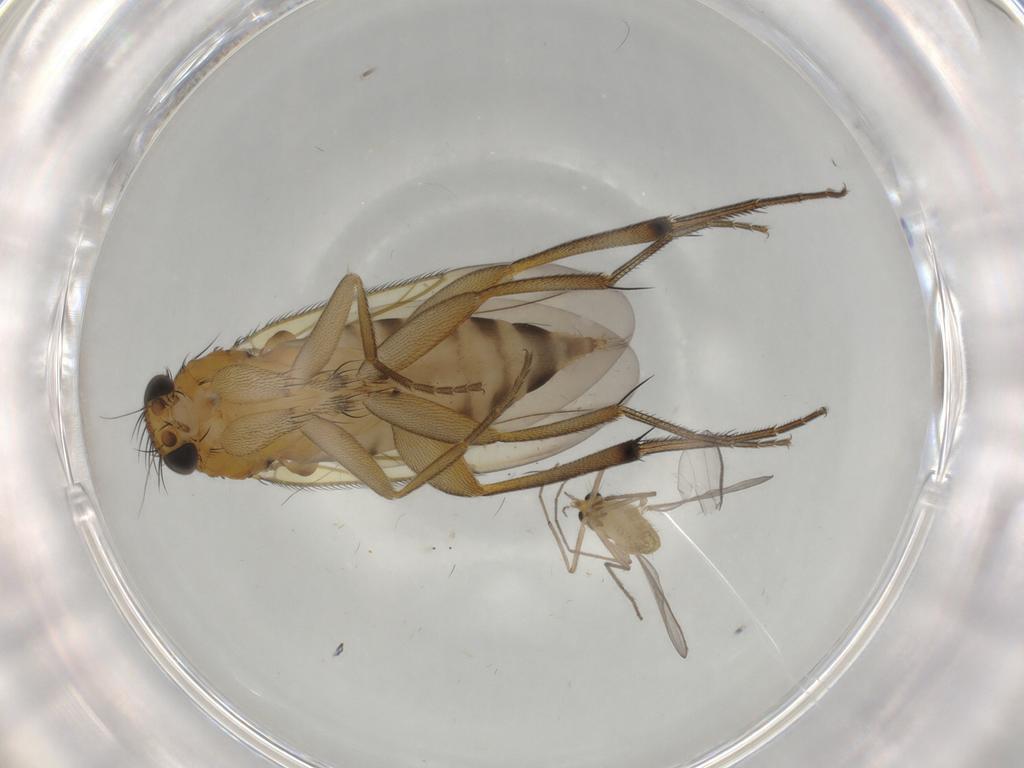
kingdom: Animalia
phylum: Arthropoda
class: Insecta
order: Diptera
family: Chironomidae
